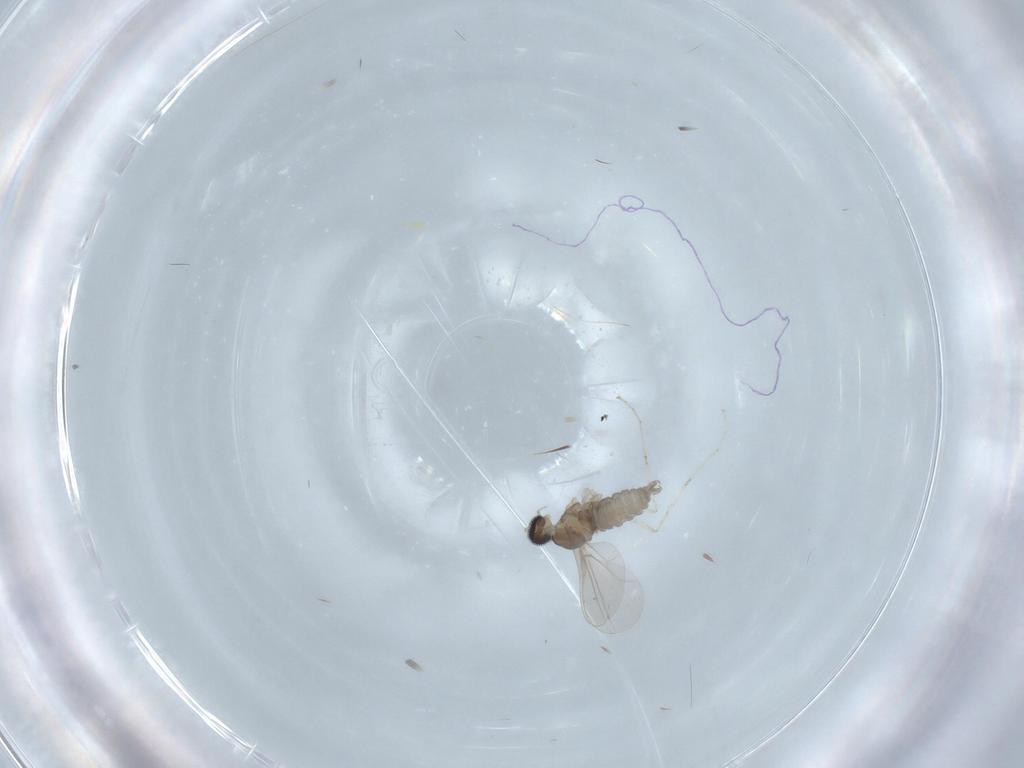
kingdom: Animalia
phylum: Arthropoda
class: Insecta
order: Diptera
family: Cecidomyiidae
